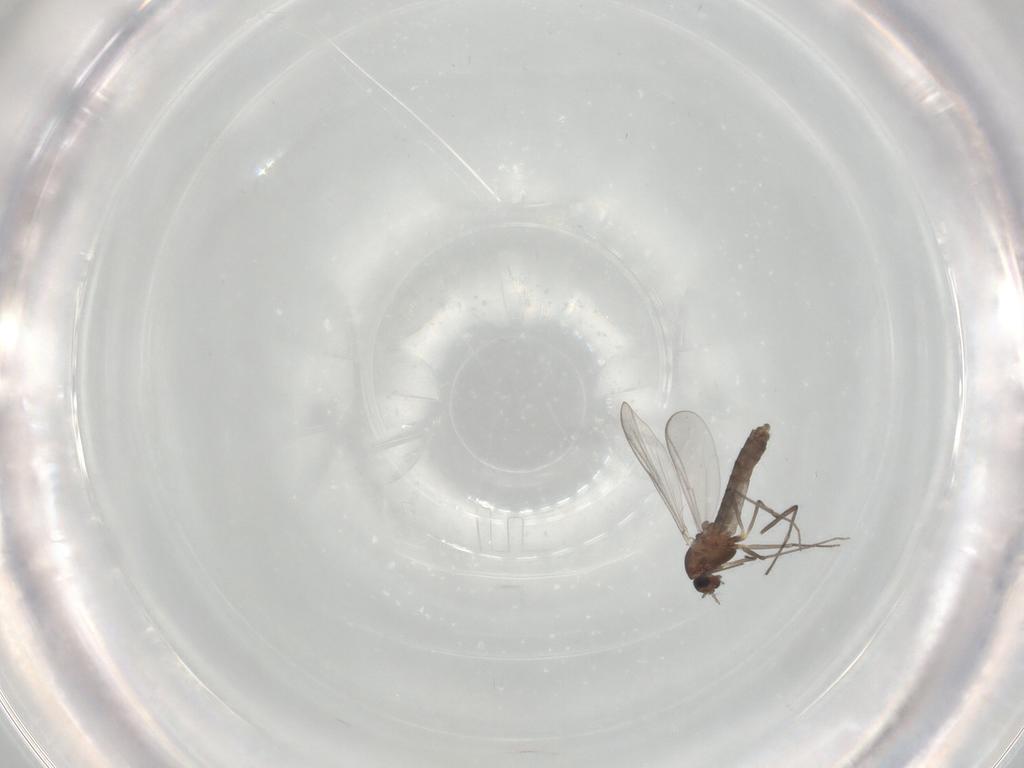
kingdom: Animalia
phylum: Arthropoda
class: Insecta
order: Diptera
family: Chironomidae
